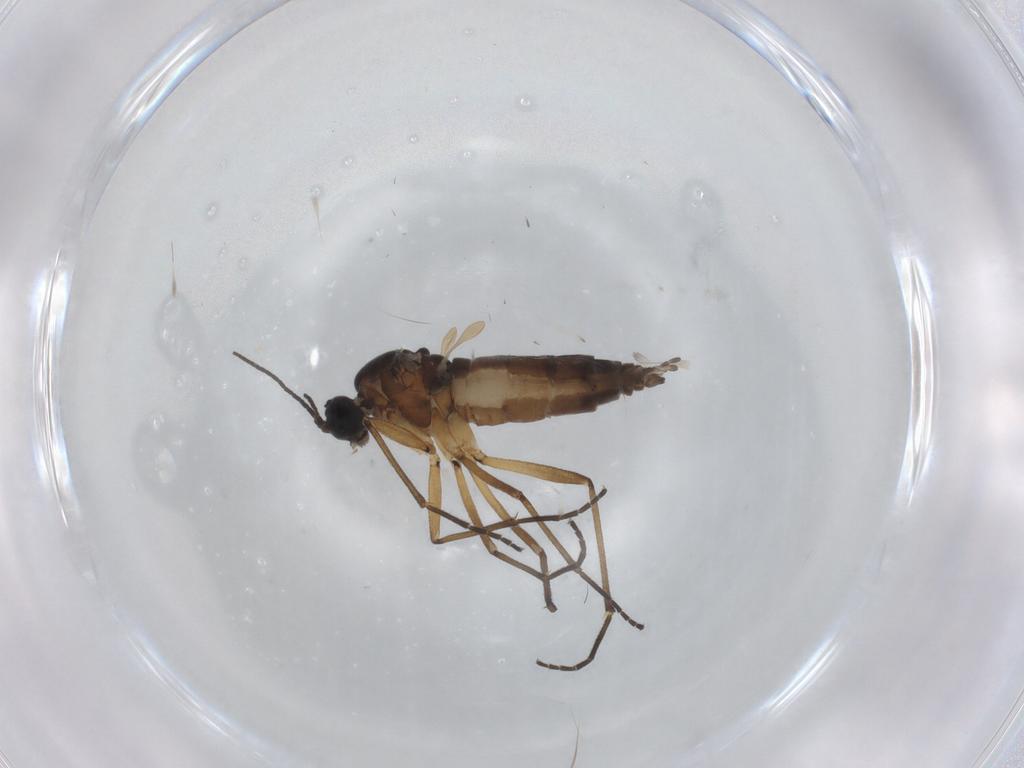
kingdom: Animalia
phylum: Arthropoda
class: Insecta
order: Diptera
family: Sciaridae
